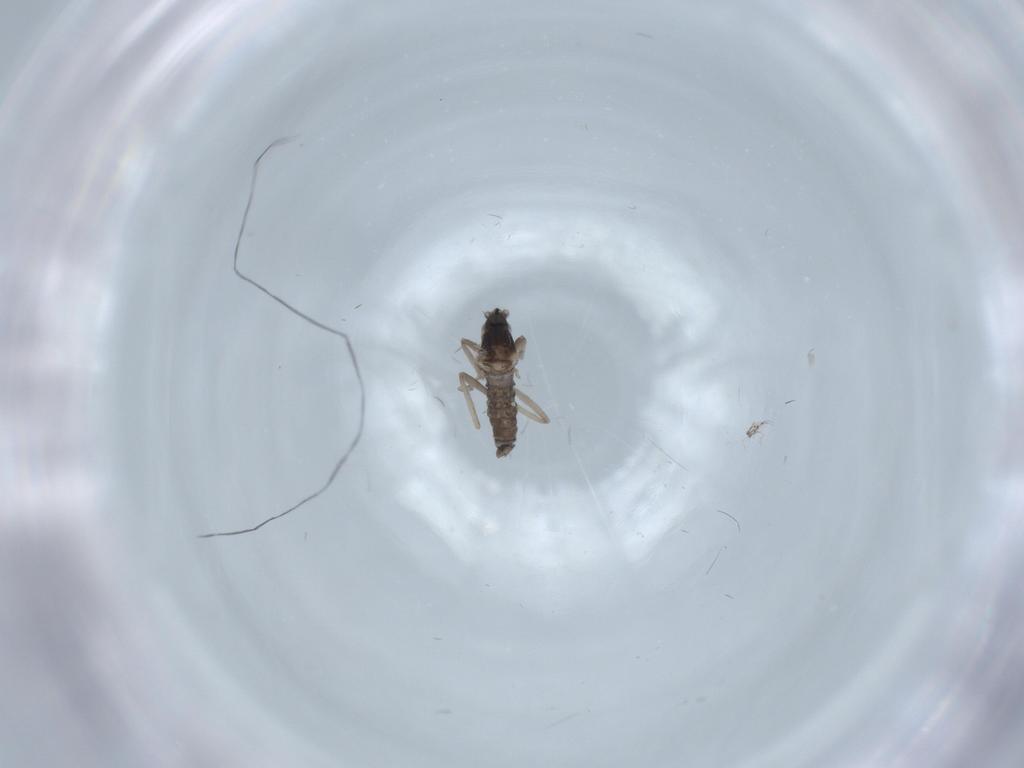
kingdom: Animalia
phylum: Arthropoda
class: Insecta
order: Diptera
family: Cecidomyiidae
